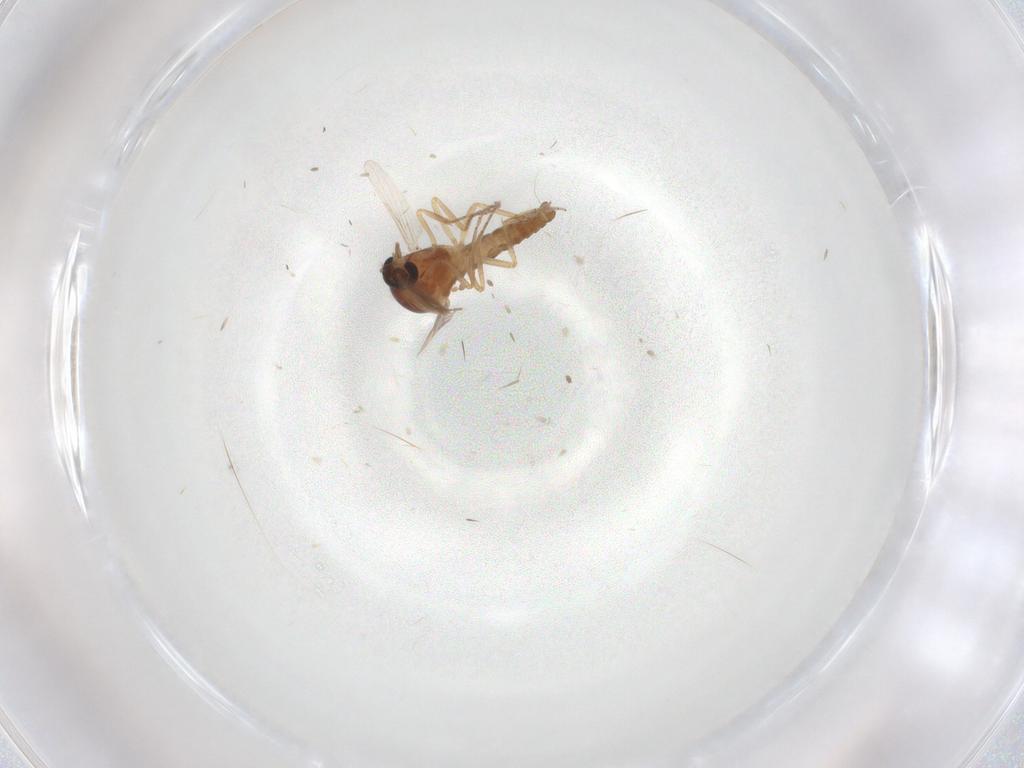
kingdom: Animalia
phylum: Arthropoda
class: Insecta
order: Diptera
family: Ceratopogonidae
